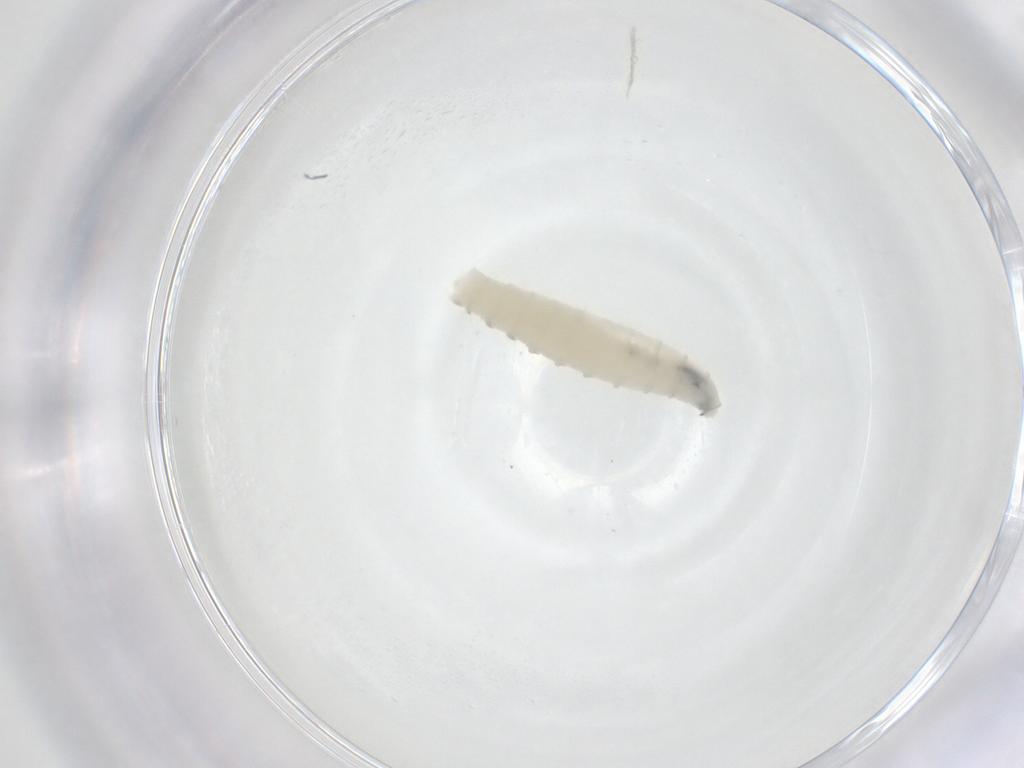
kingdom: Animalia
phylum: Arthropoda
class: Insecta
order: Diptera
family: Sarcophagidae
